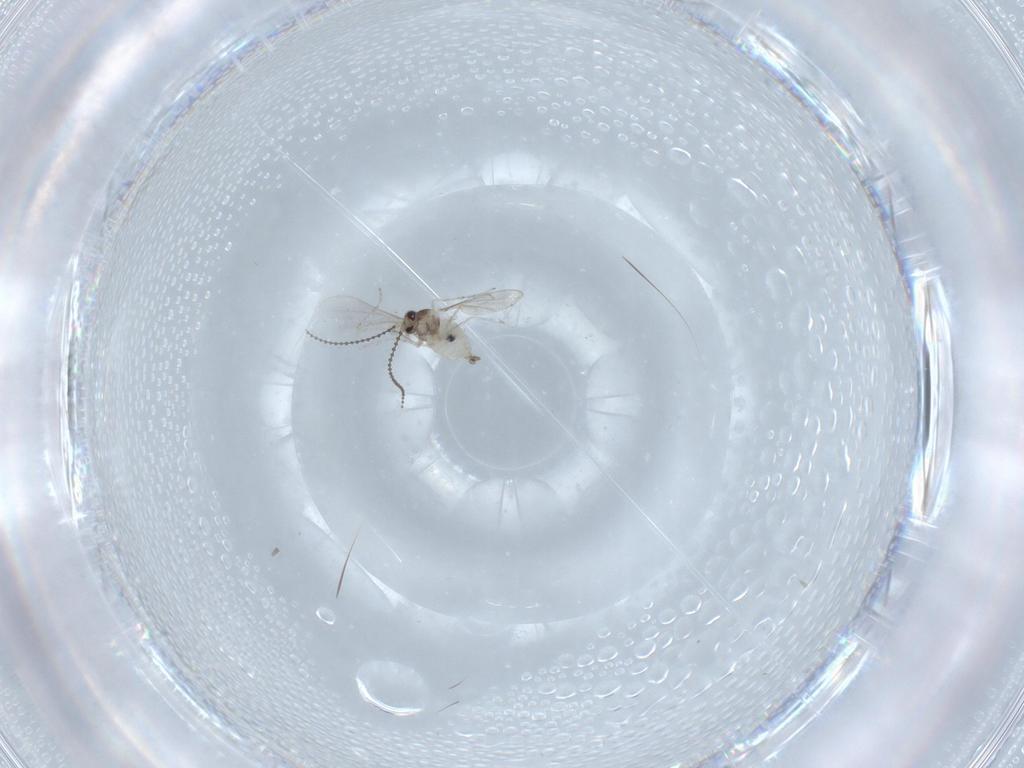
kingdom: Animalia
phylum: Arthropoda
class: Insecta
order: Diptera
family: Cecidomyiidae
